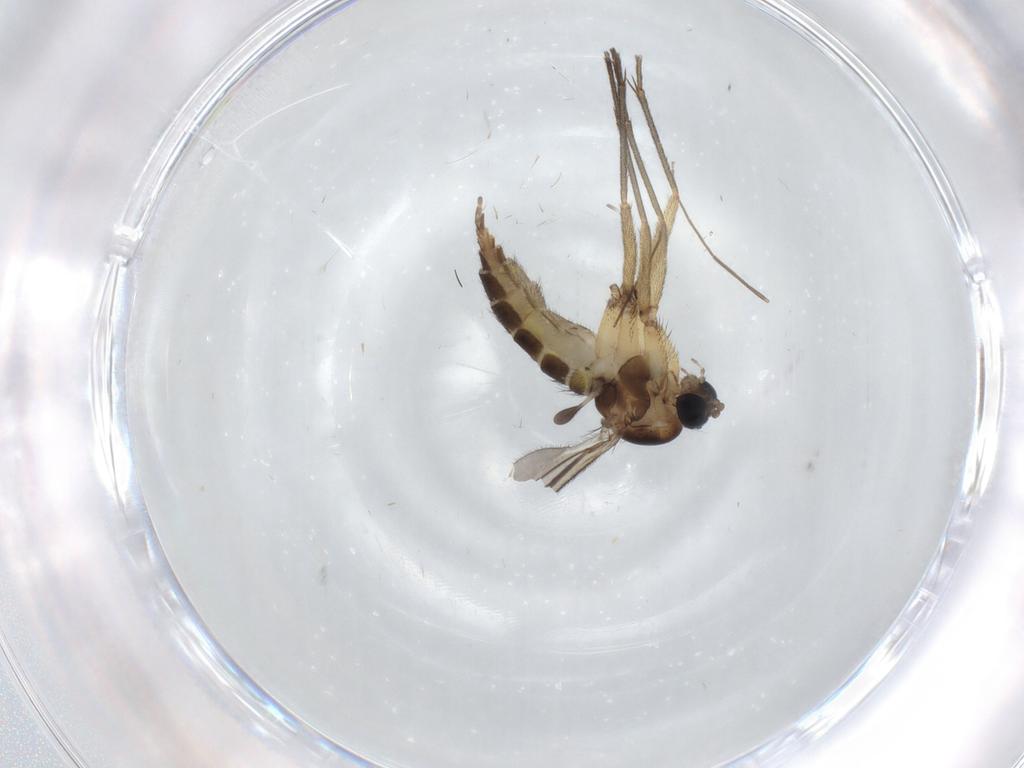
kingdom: Animalia
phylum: Arthropoda
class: Insecta
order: Diptera
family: Sciaridae
